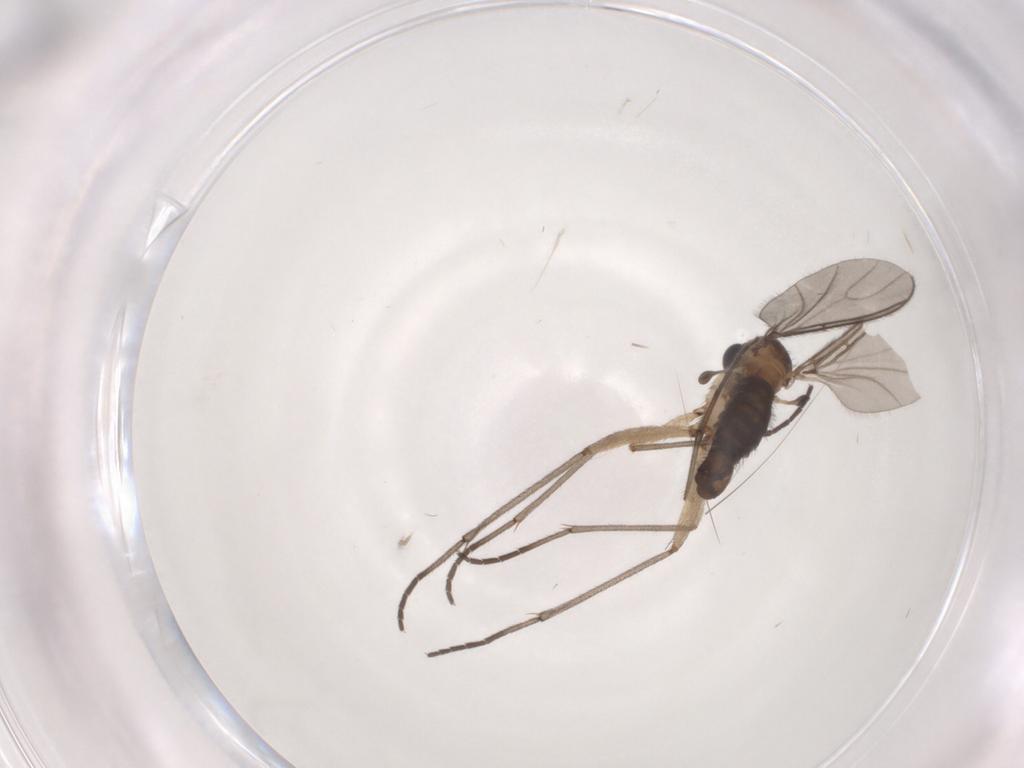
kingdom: Animalia
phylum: Arthropoda
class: Insecta
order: Diptera
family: Sciaridae
